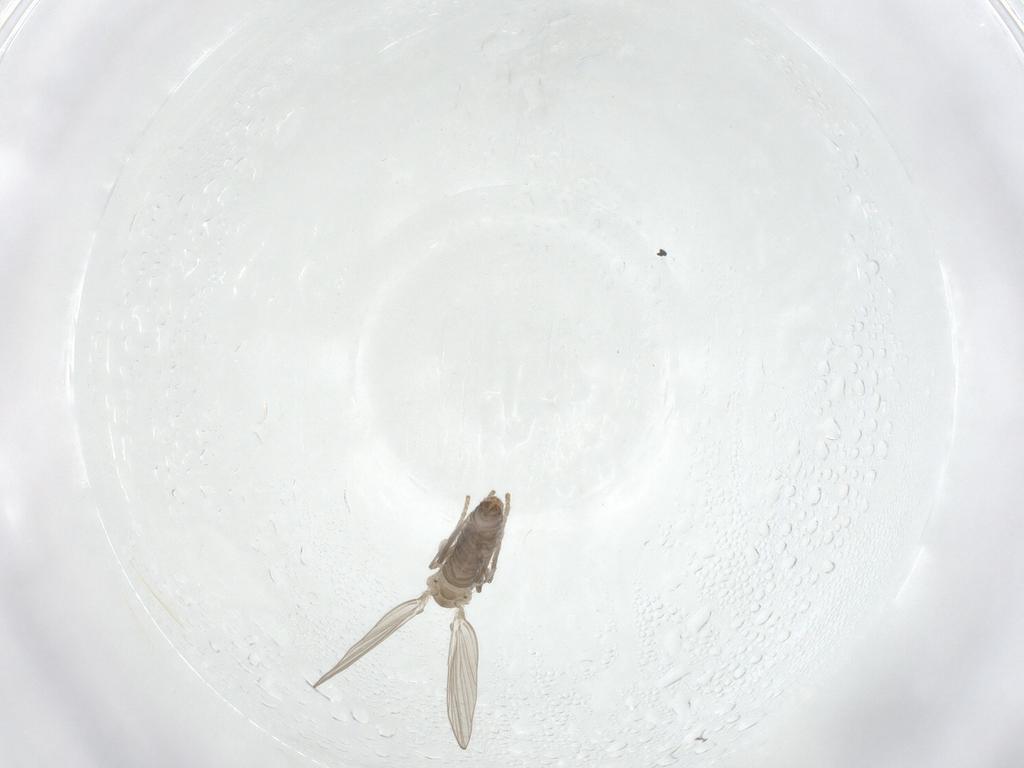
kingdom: Animalia
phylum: Arthropoda
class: Insecta
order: Diptera
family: Psychodidae
